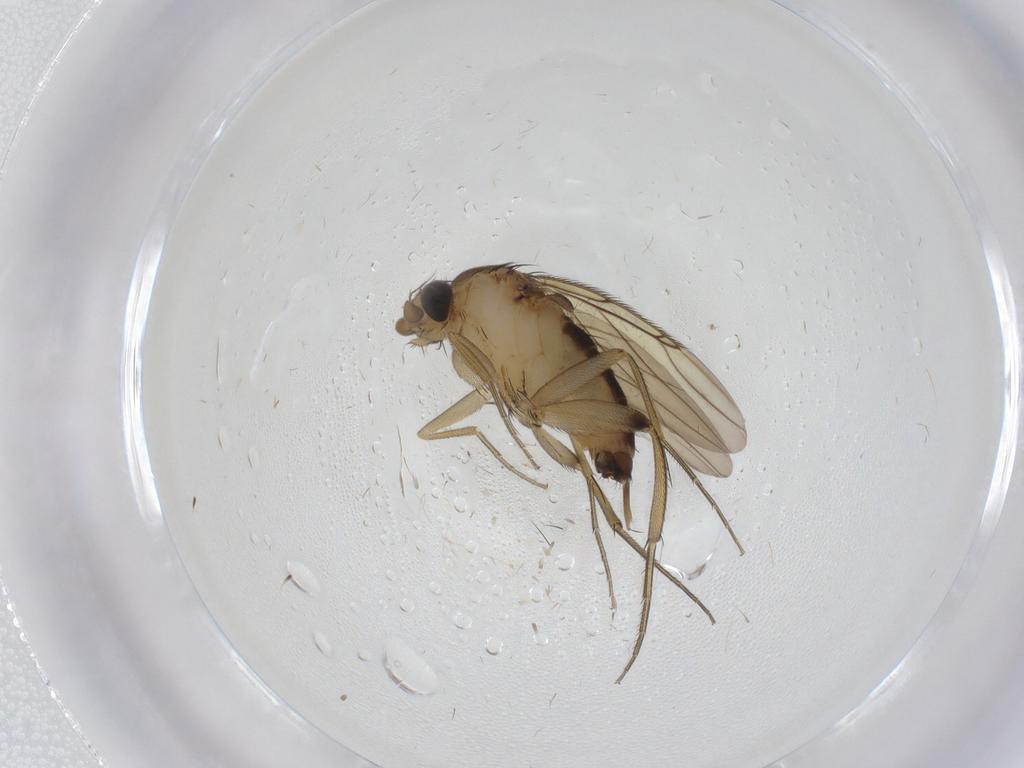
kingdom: Animalia
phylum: Arthropoda
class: Insecta
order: Diptera
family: Phoridae
